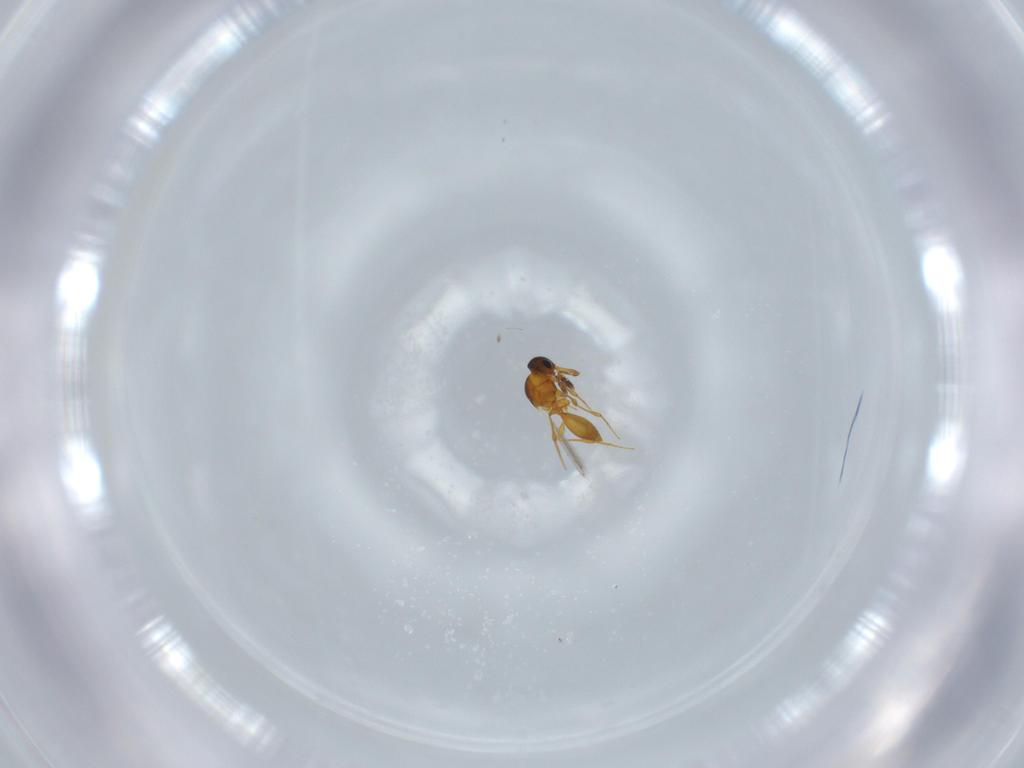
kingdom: Animalia
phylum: Arthropoda
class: Insecta
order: Hymenoptera
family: Platygastridae
